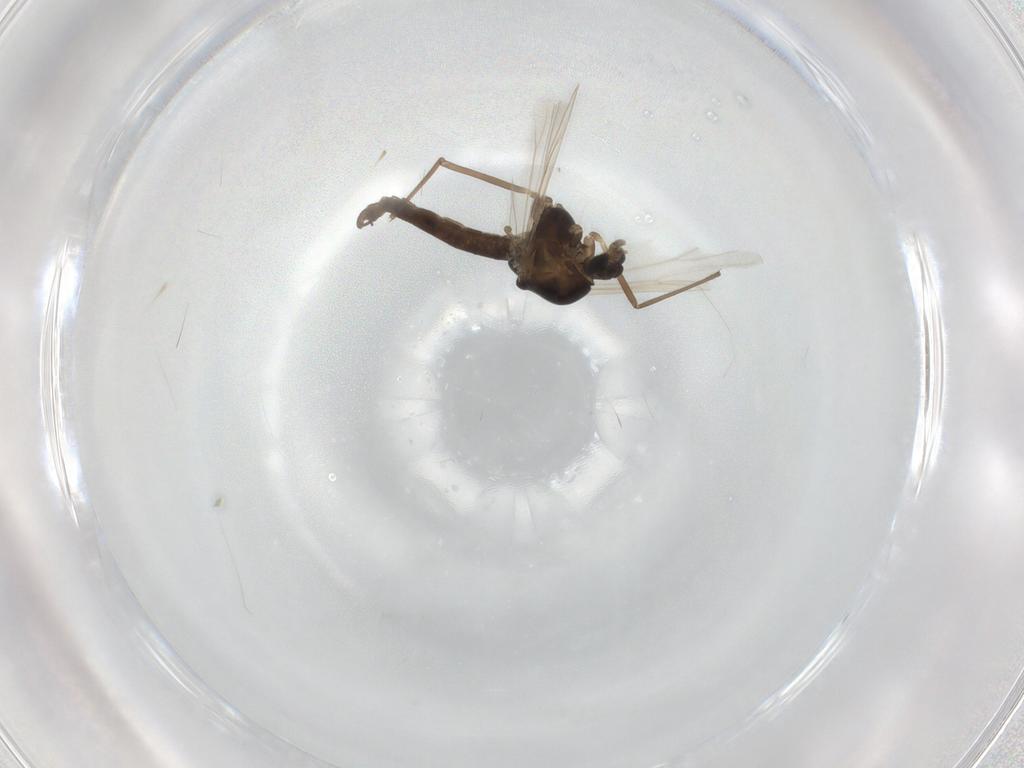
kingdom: Animalia
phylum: Arthropoda
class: Insecta
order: Diptera
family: Chironomidae
